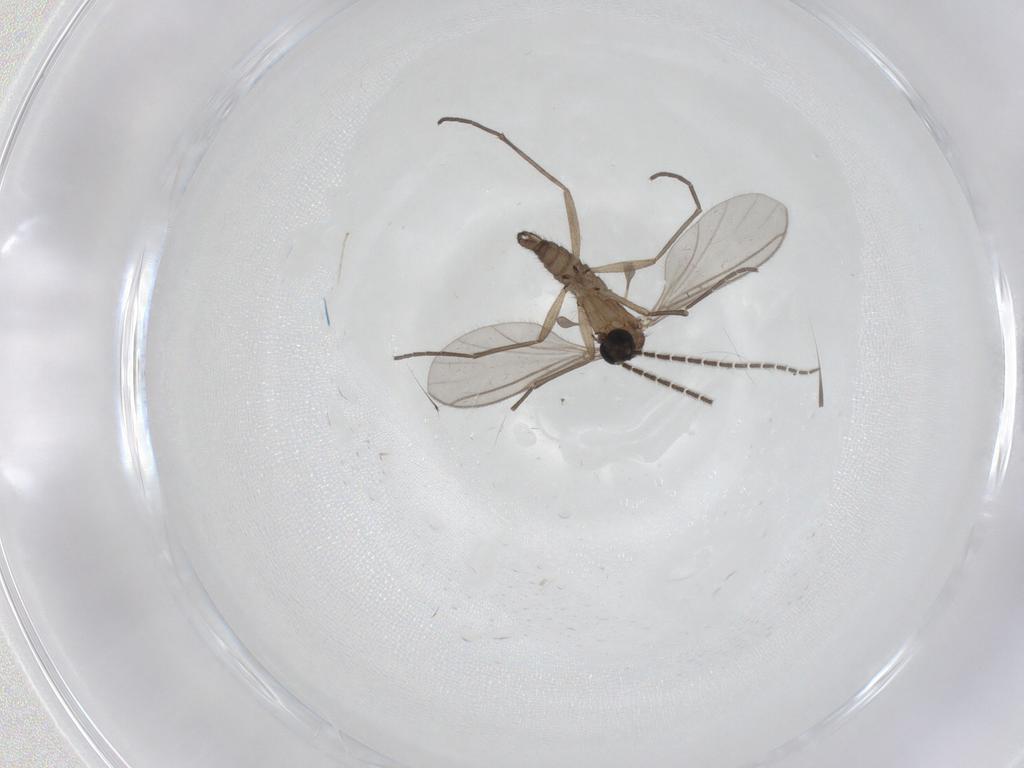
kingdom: Animalia
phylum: Arthropoda
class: Insecta
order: Diptera
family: Sciaridae
